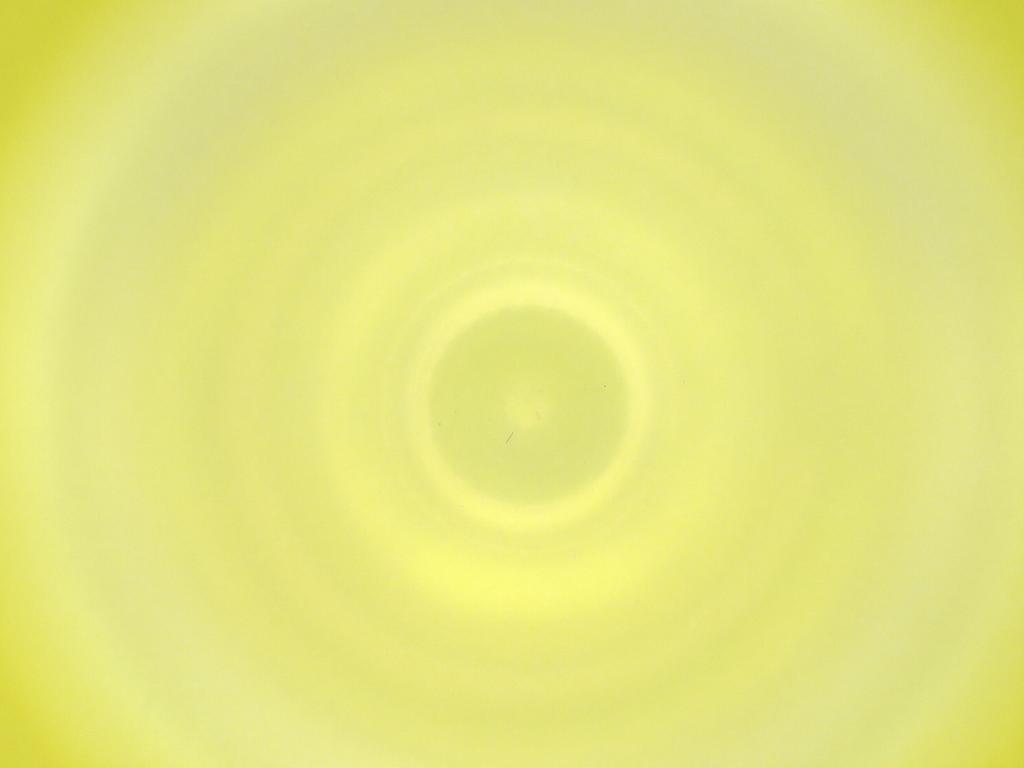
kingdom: Animalia
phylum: Arthropoda
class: Insecta
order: Diptera
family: Cecidomyiidae
